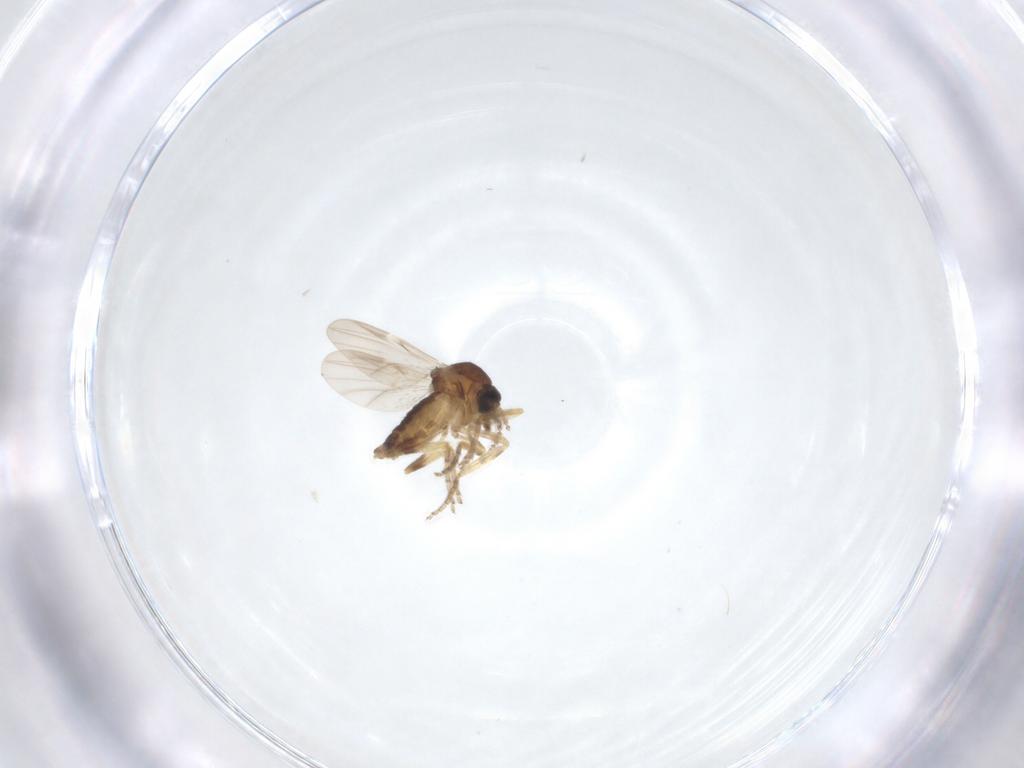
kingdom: Animalia
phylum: Arthropoda
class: Insecta
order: Diptera
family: Ceratopogonidae
